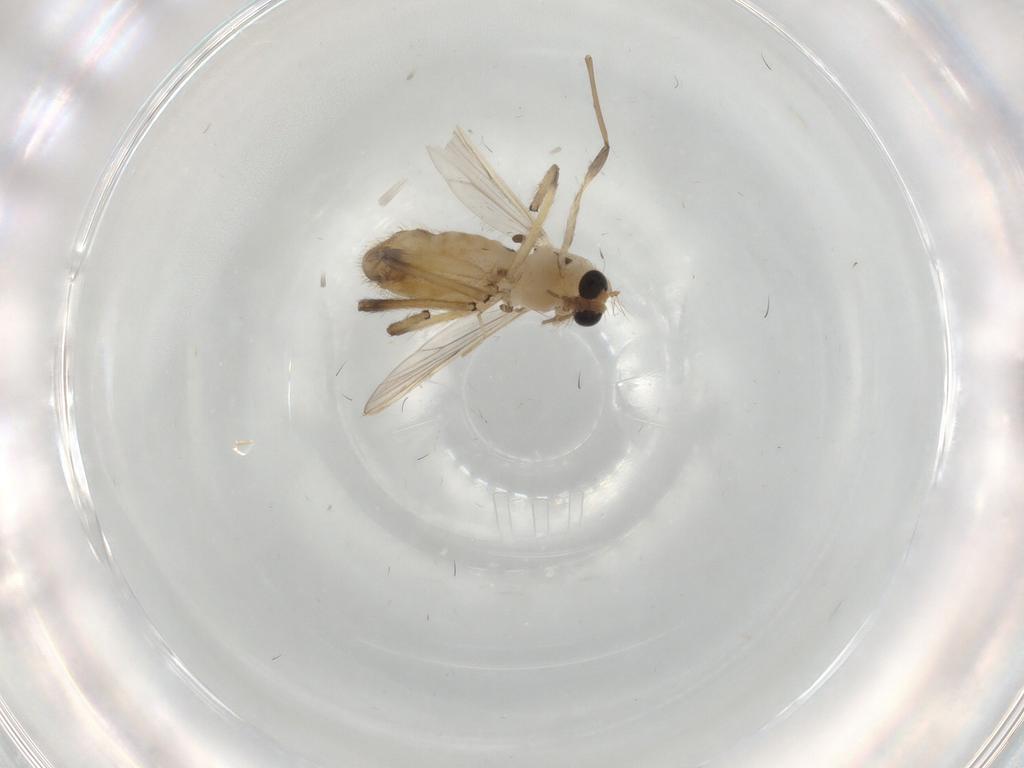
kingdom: Animalia
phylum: Arthropoda
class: Insecta
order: Diptera
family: Chironomidae
